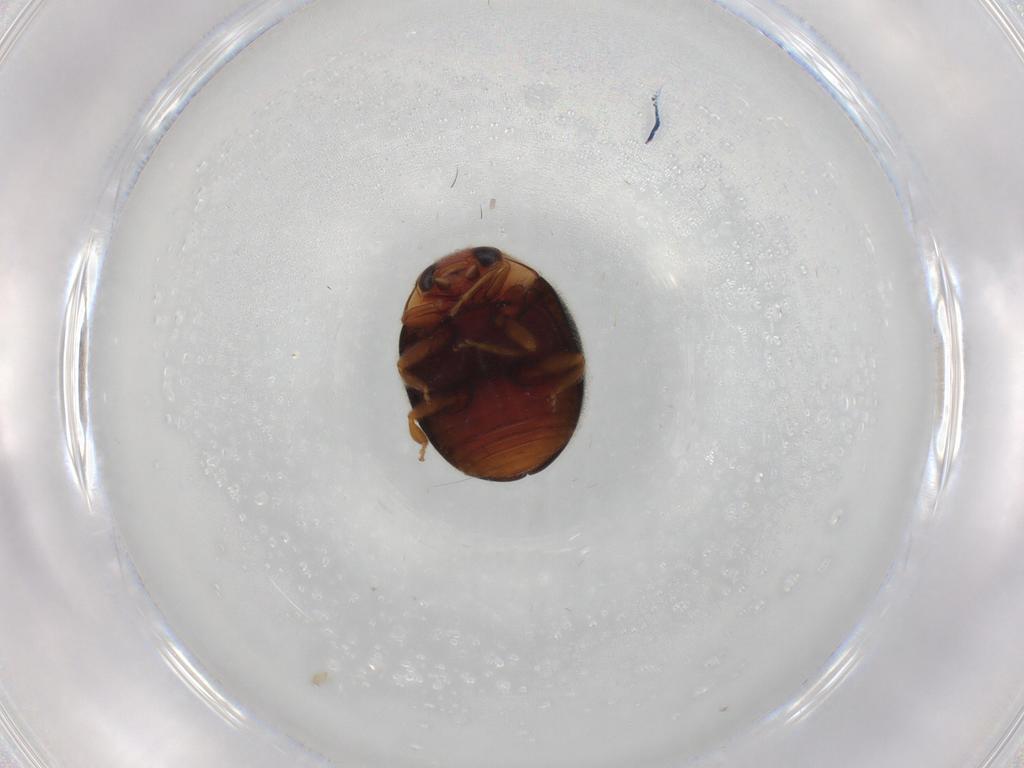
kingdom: Animalia
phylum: Arthropoda
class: Insecta
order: Coleoptera
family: Coccinellidae
